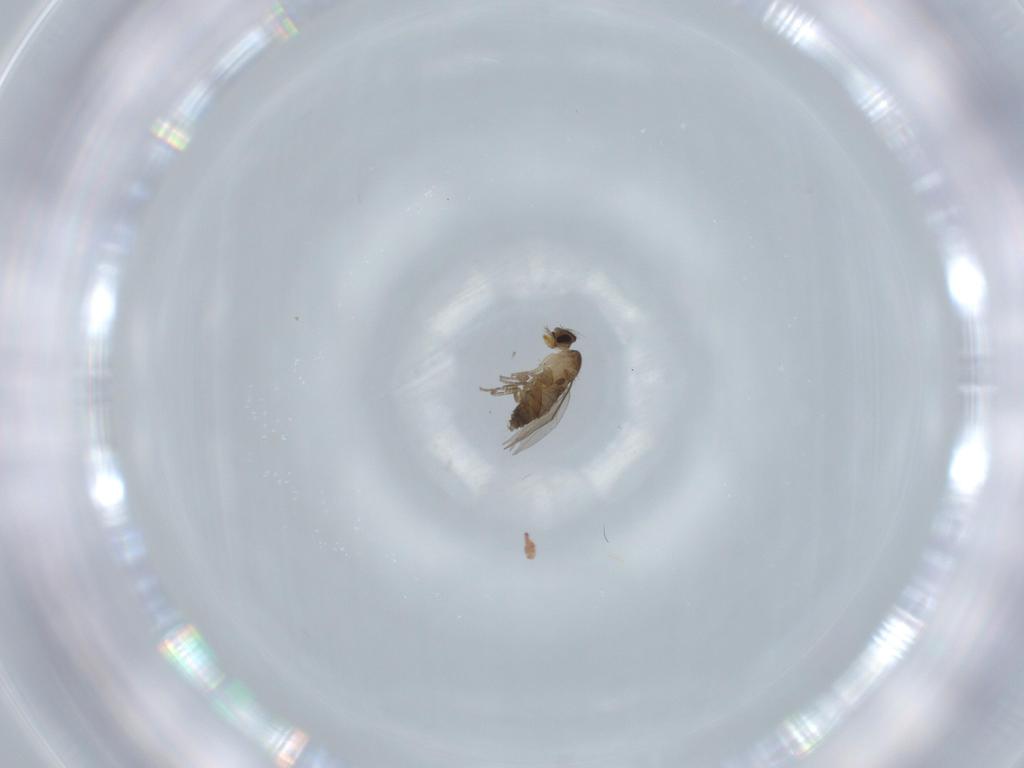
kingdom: Animalia
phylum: Arthropoda
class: Insecta
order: Diptera
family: Phoridae
